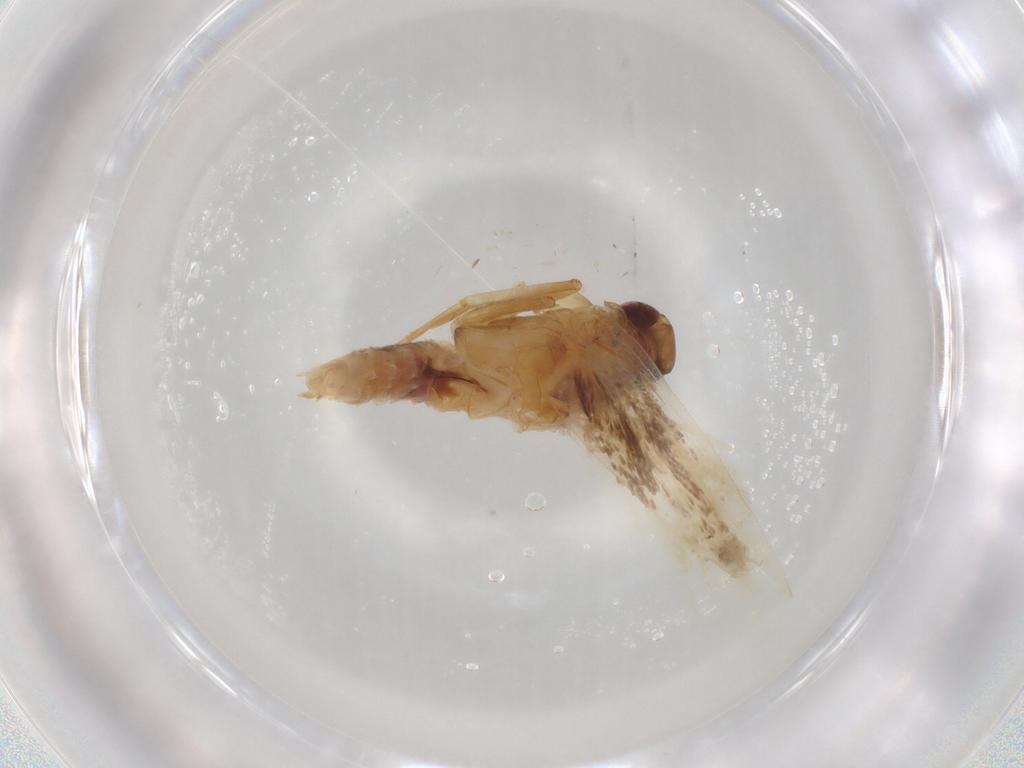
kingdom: Animalia
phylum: Arthropoda
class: Insecta
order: Lepidoptera
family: Gelechiidae
